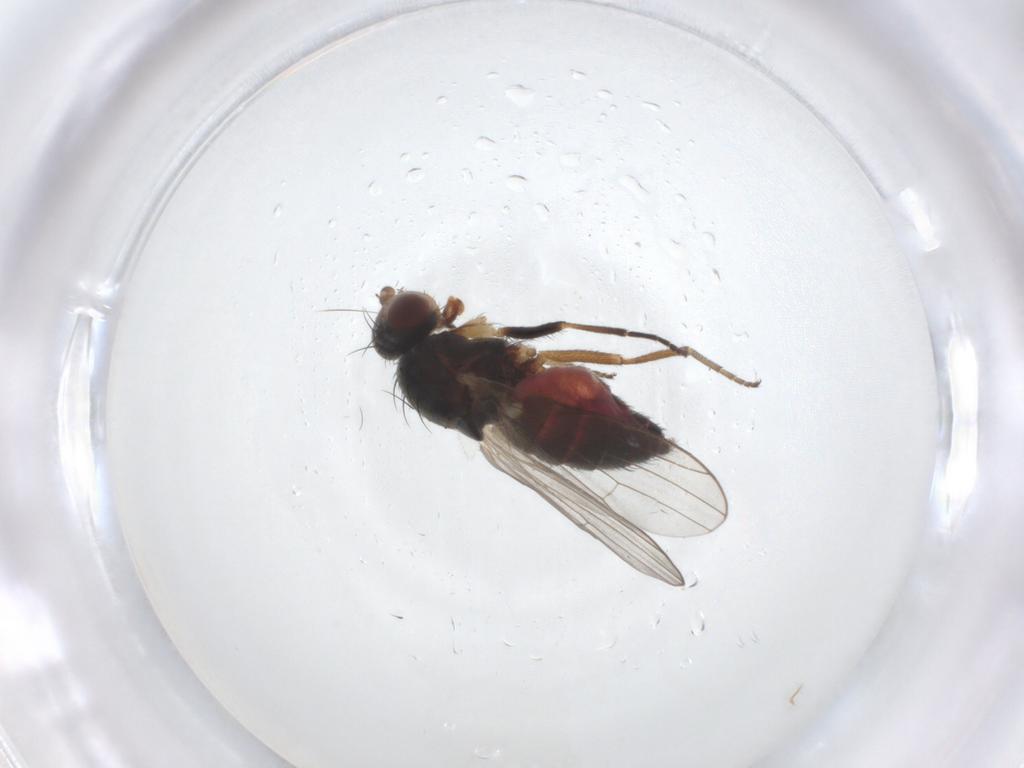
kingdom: Animalia
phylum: Arthropoda
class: Insecta
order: Diptera
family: Heleomyzidae
